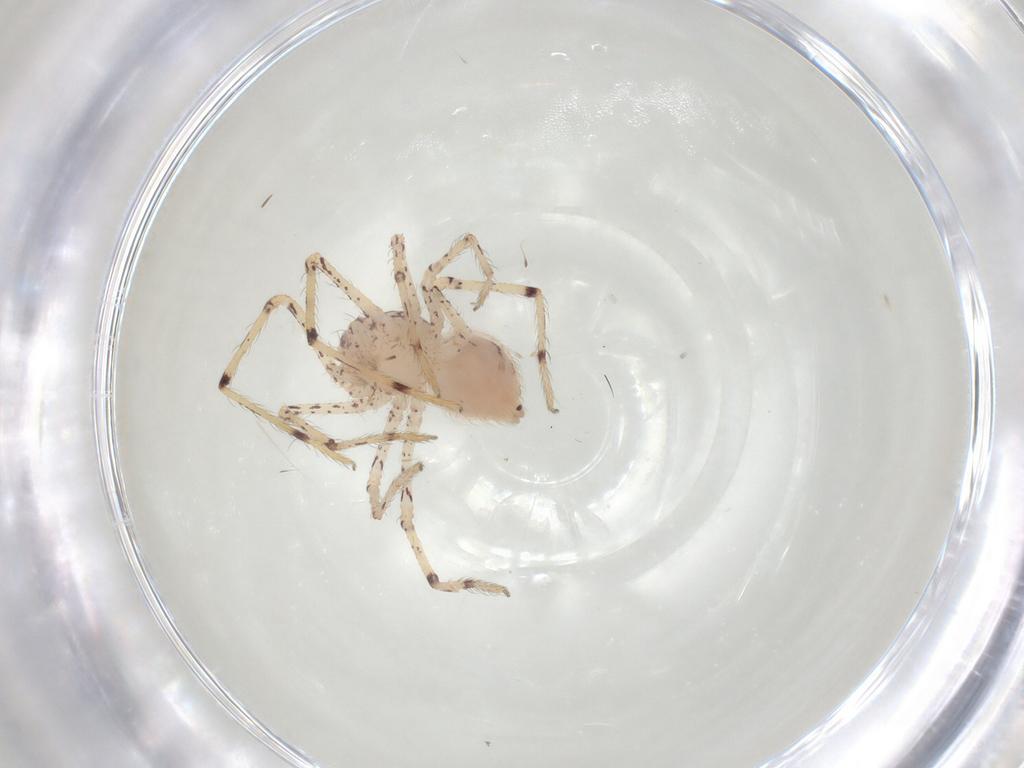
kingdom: Animalia
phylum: Arthropoda
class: Arachnida
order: Araneae
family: Scytodidae
